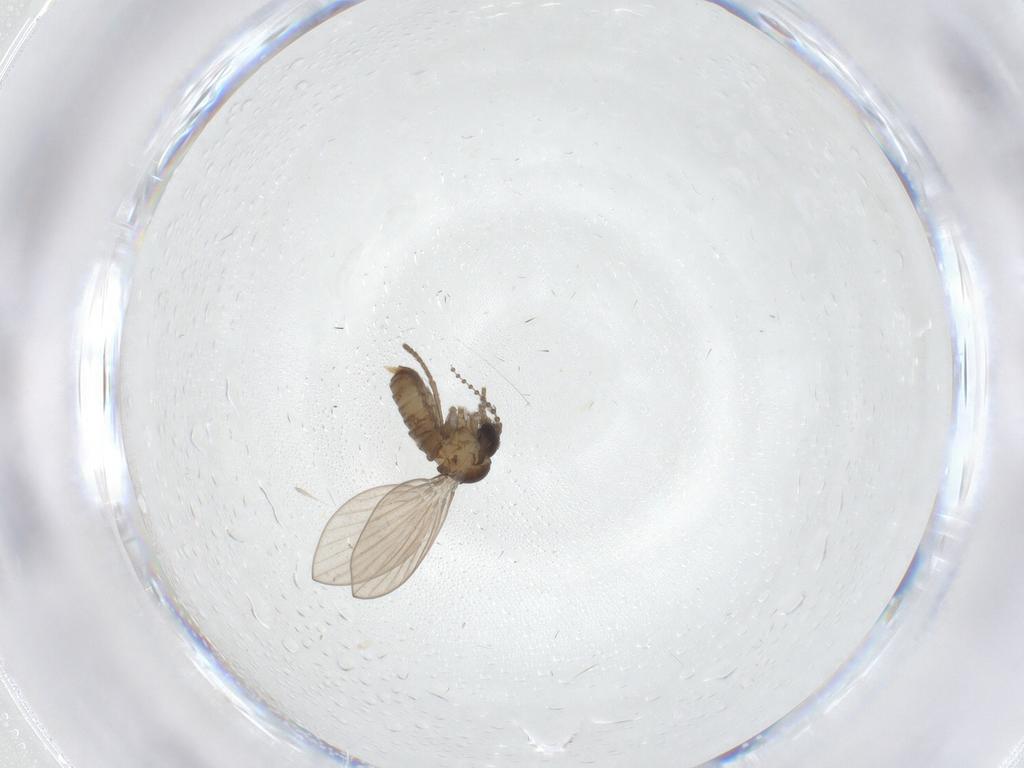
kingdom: Animalia
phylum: Arthropoda
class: Insecta
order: Diptera
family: Psychodidae
